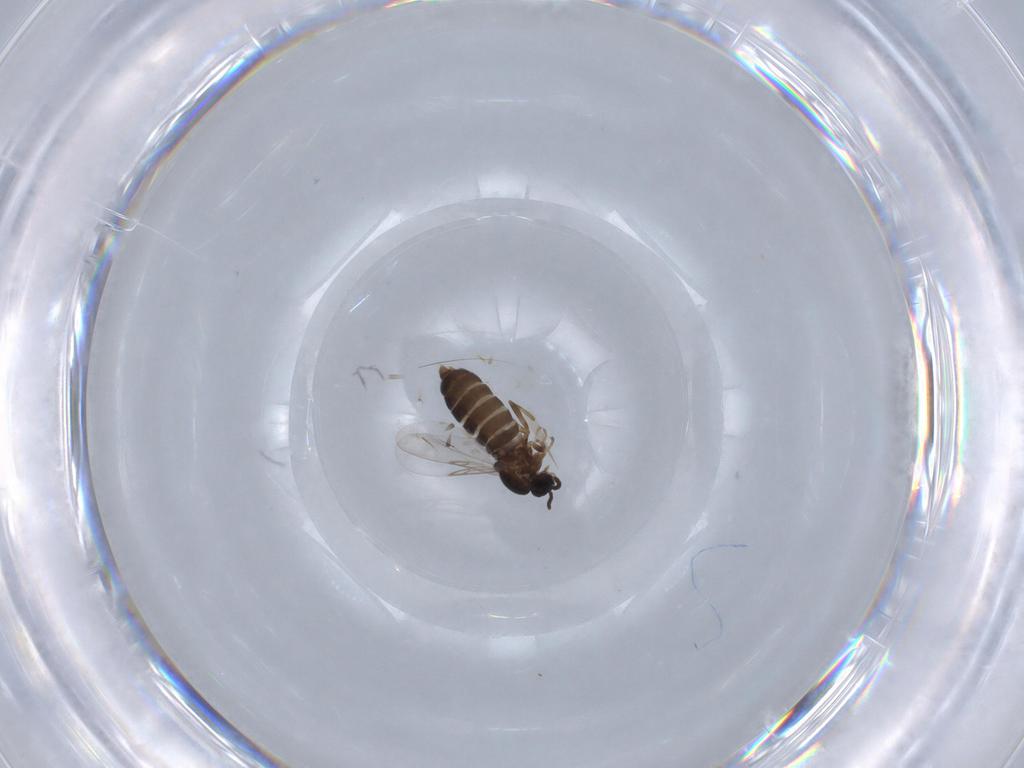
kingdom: Animalia
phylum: Arthropoda
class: Insecta
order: Diptera
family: Scatopsidae
